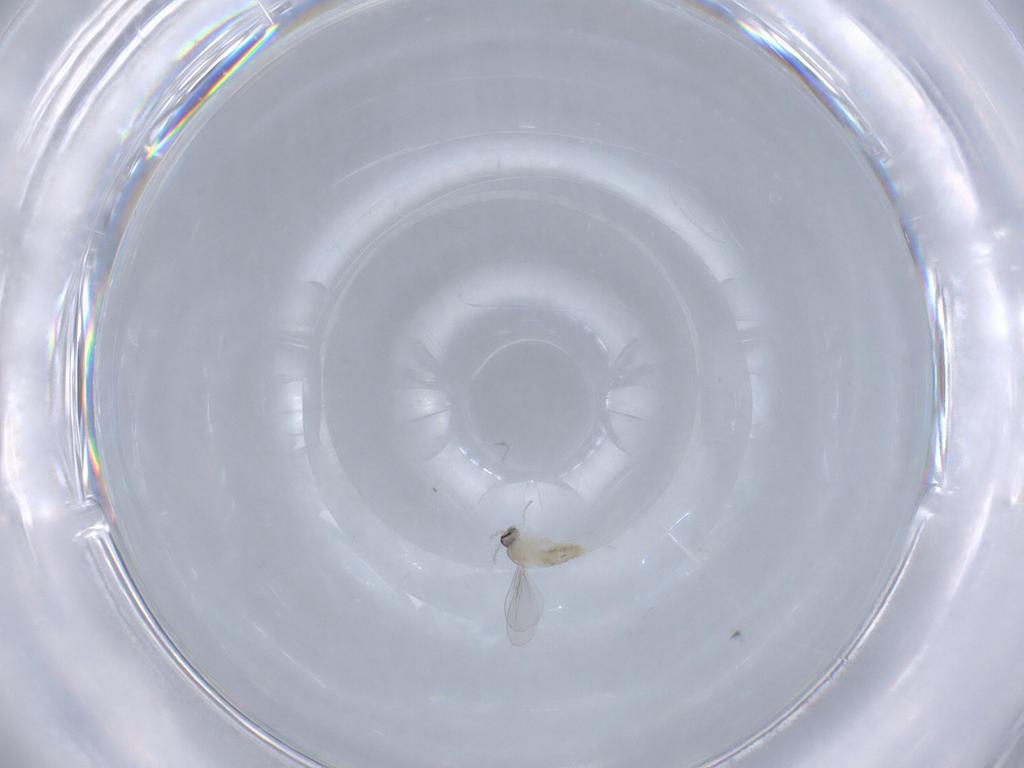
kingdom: Animalia
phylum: Arthropoda
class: Insecta
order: Diptera
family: Cecidomyiidae
